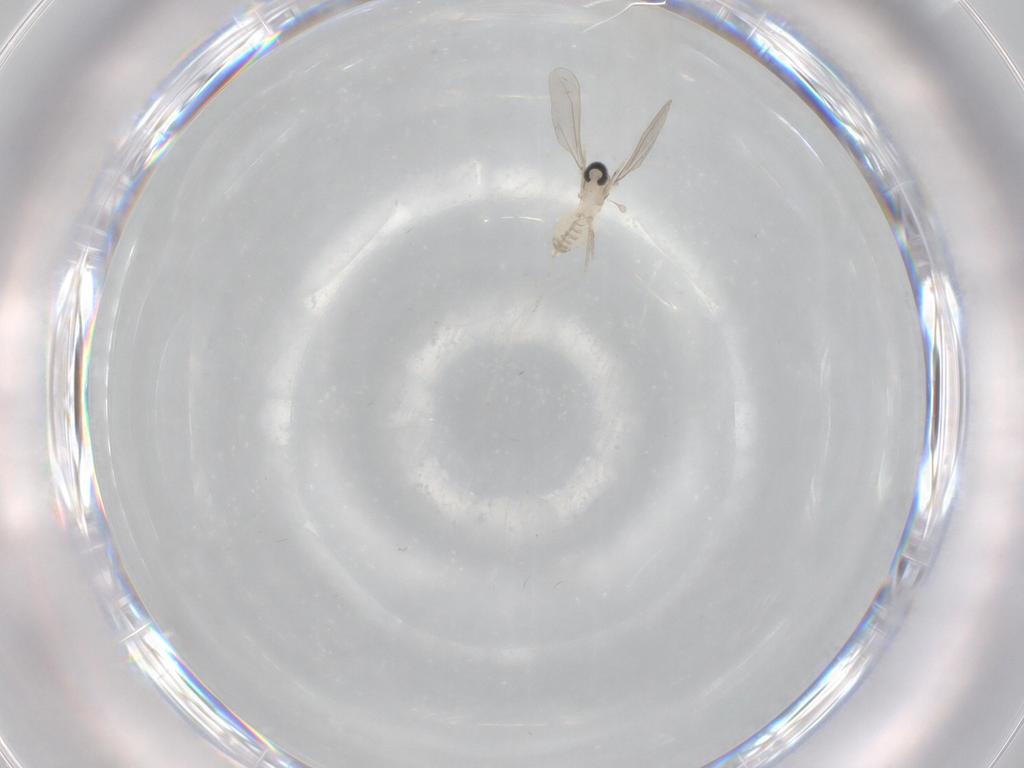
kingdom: Animalia
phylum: Arthropoda
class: Insecta
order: Diptera
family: Cecidomyiidae
